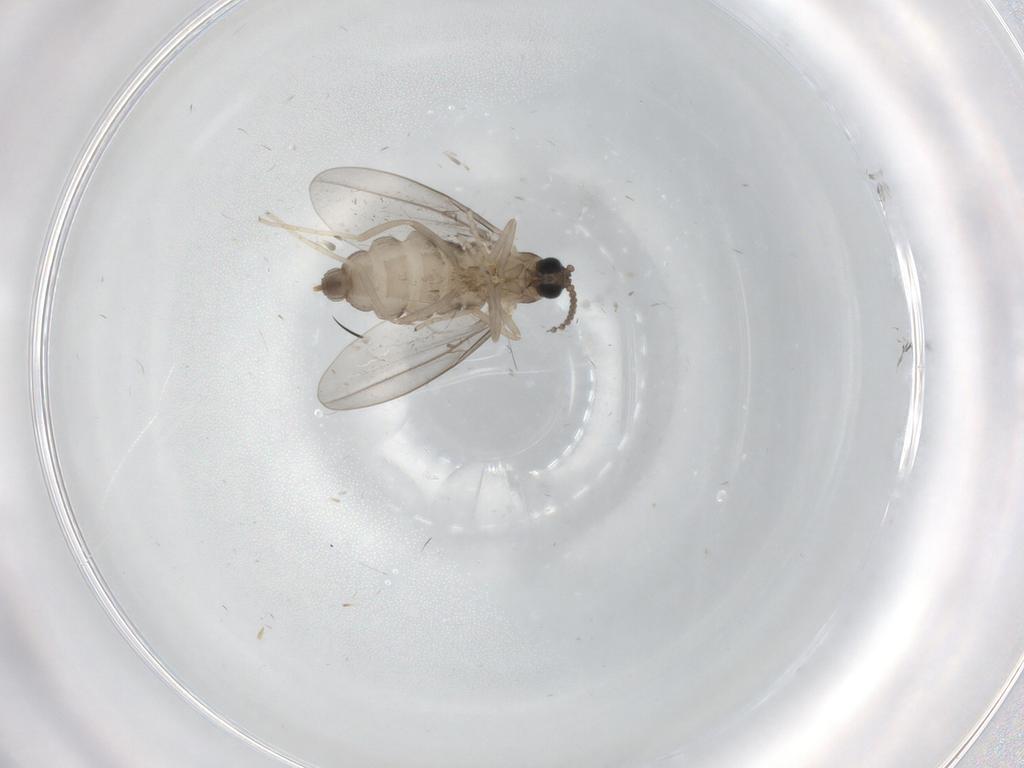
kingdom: Animalia
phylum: Arthropoda
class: Insecta
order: Diptera
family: Cecidomyiidae
